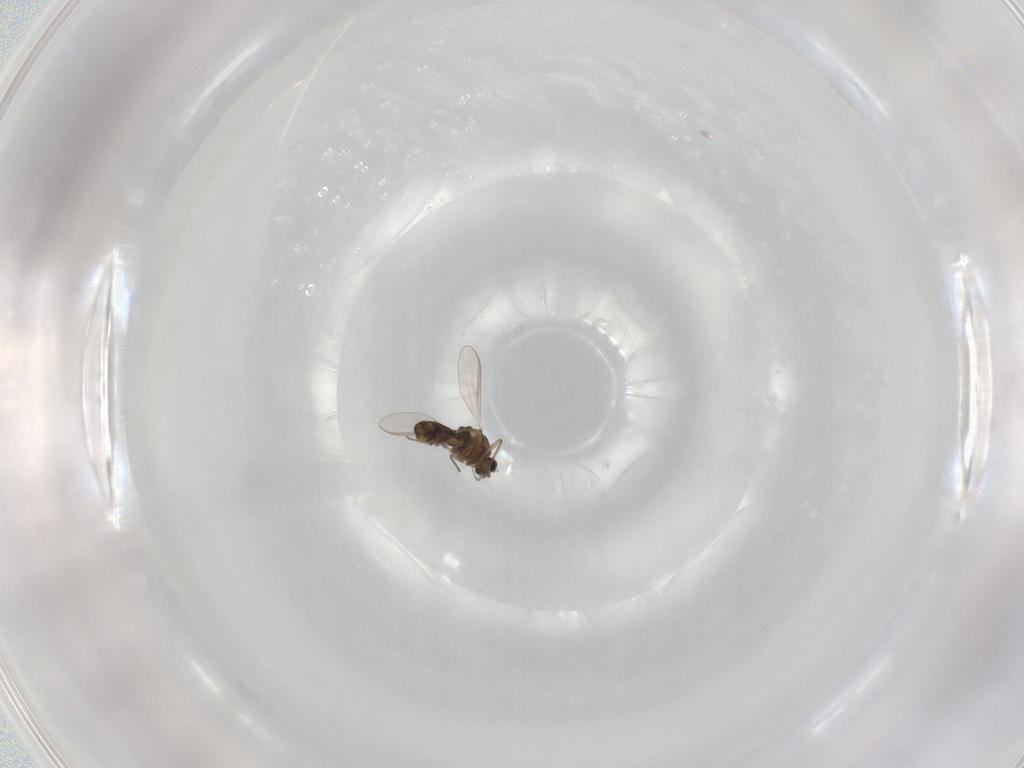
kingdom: Animalia
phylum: Arthropoda
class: Insecta
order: Diptera
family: Chironomidae
